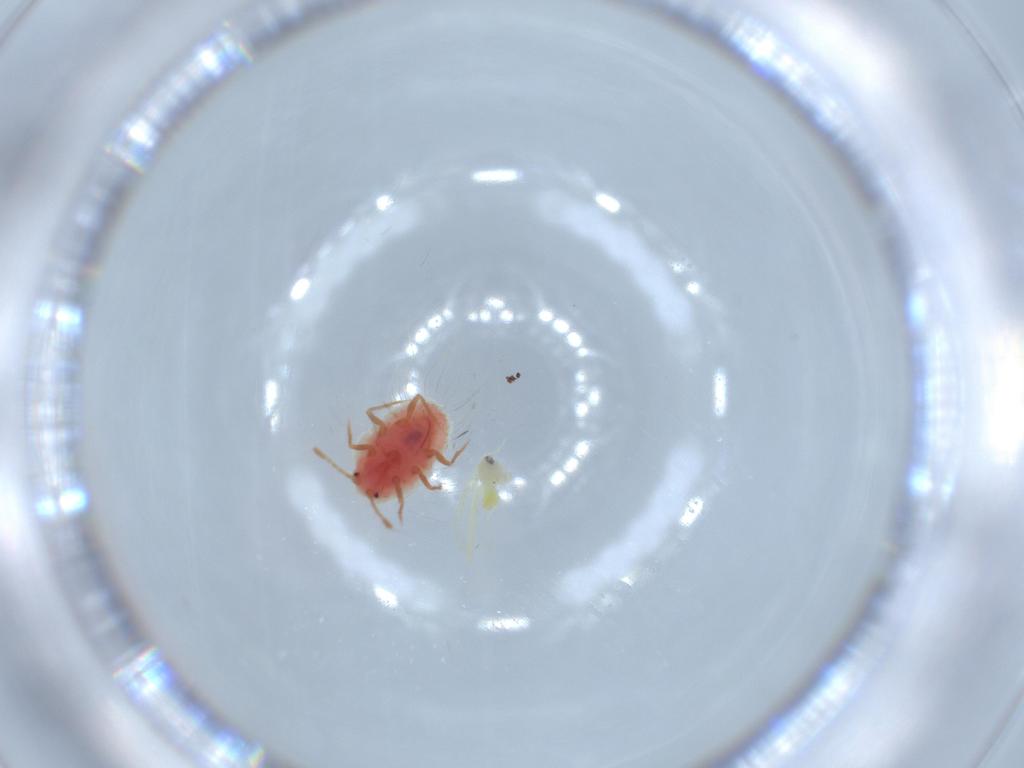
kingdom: Animalia
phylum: Arthropoda
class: Insecta
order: Hemiptera
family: Aleyrodidae
